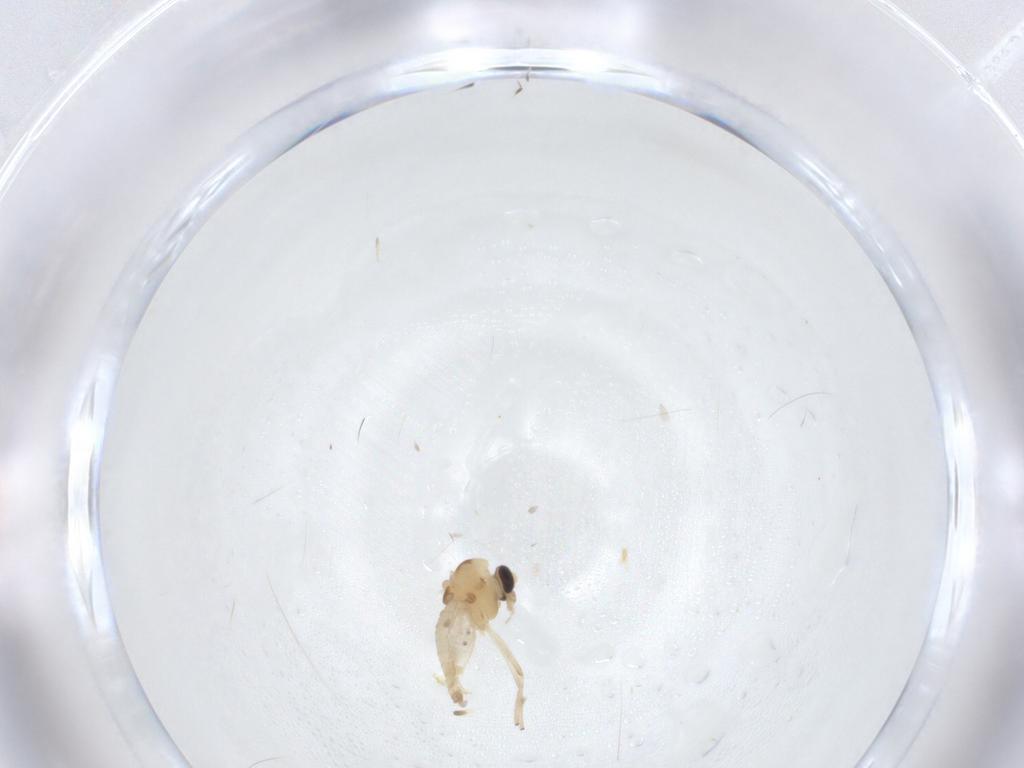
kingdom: Animalia
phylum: Arthropoda
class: Insecta
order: Diptera
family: Chironomidae
